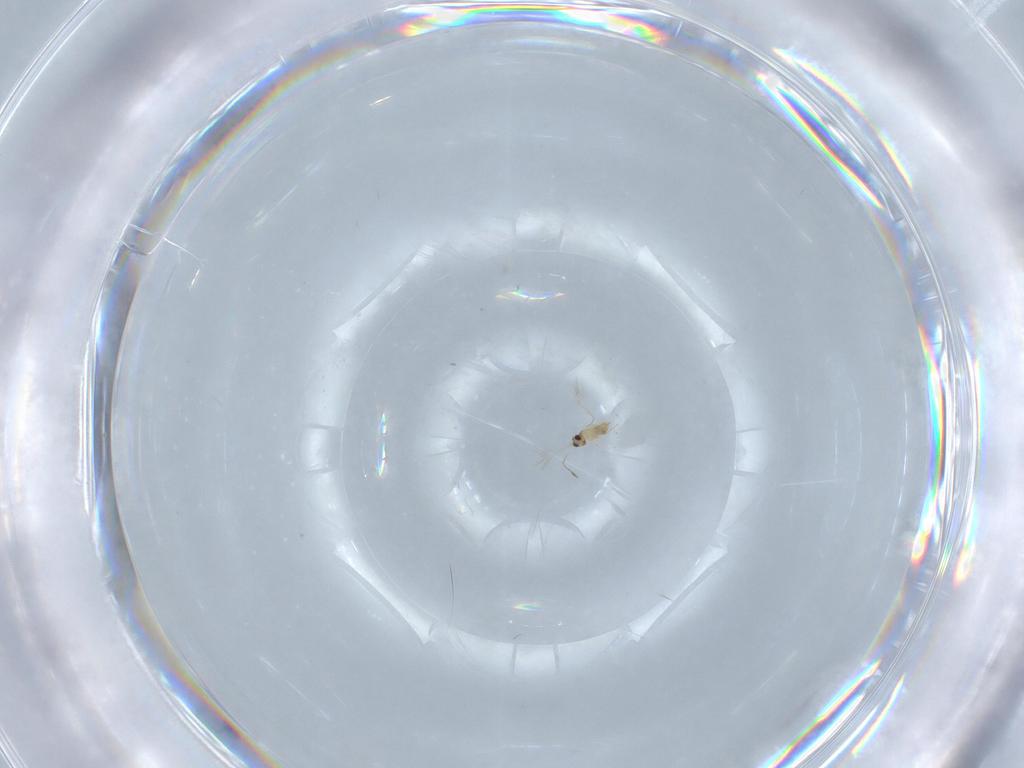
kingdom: Animalia
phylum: Arthropoda
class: Insecta
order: Hymenoptera
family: Mymaridae
